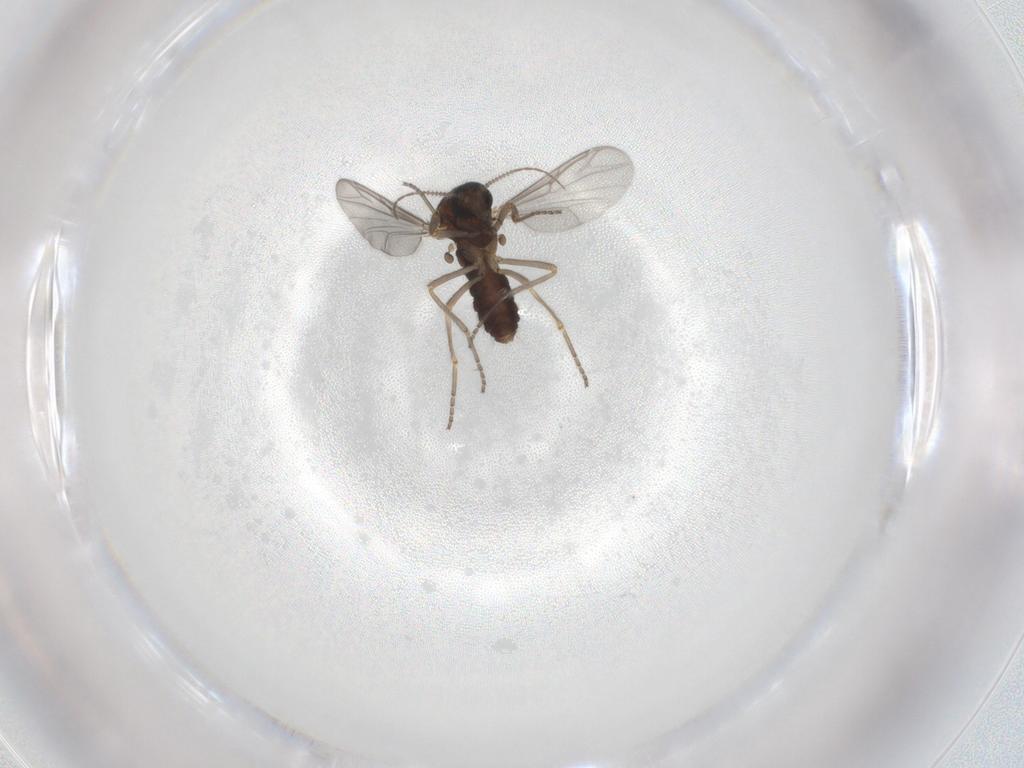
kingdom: Animalia
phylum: Arthropoda
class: Insecta
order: Diptera
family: Ceratopogonidae
